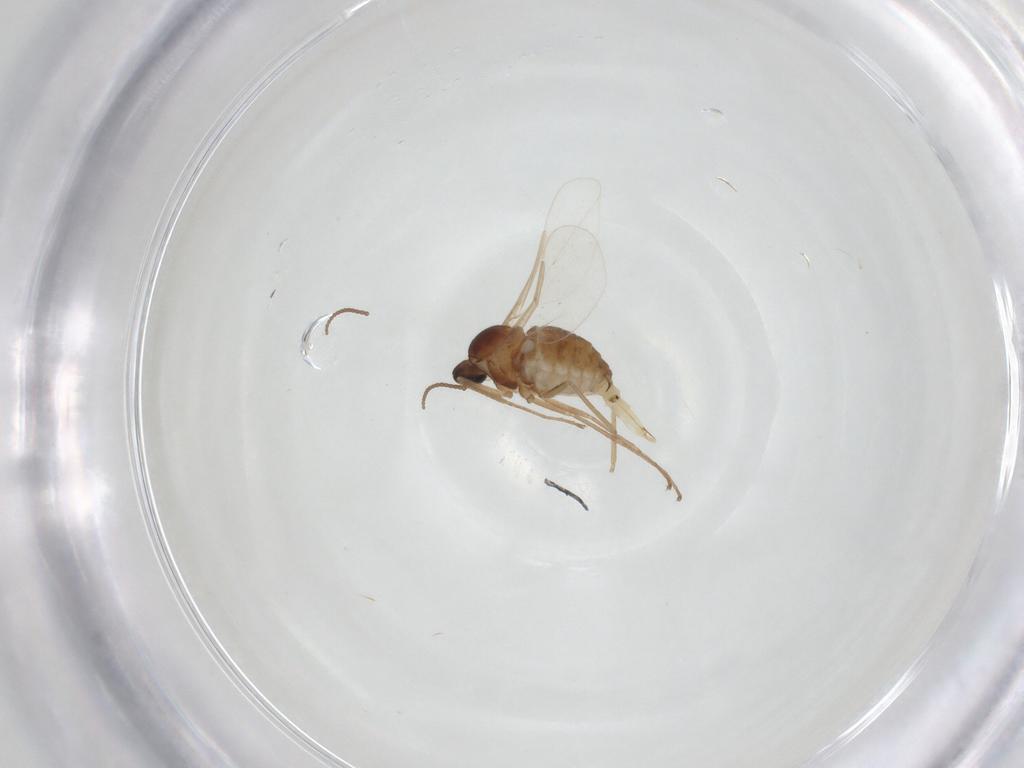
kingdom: Animalia
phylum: Arthropoda
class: Insecta
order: Diptera
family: Cecidomyiidae
